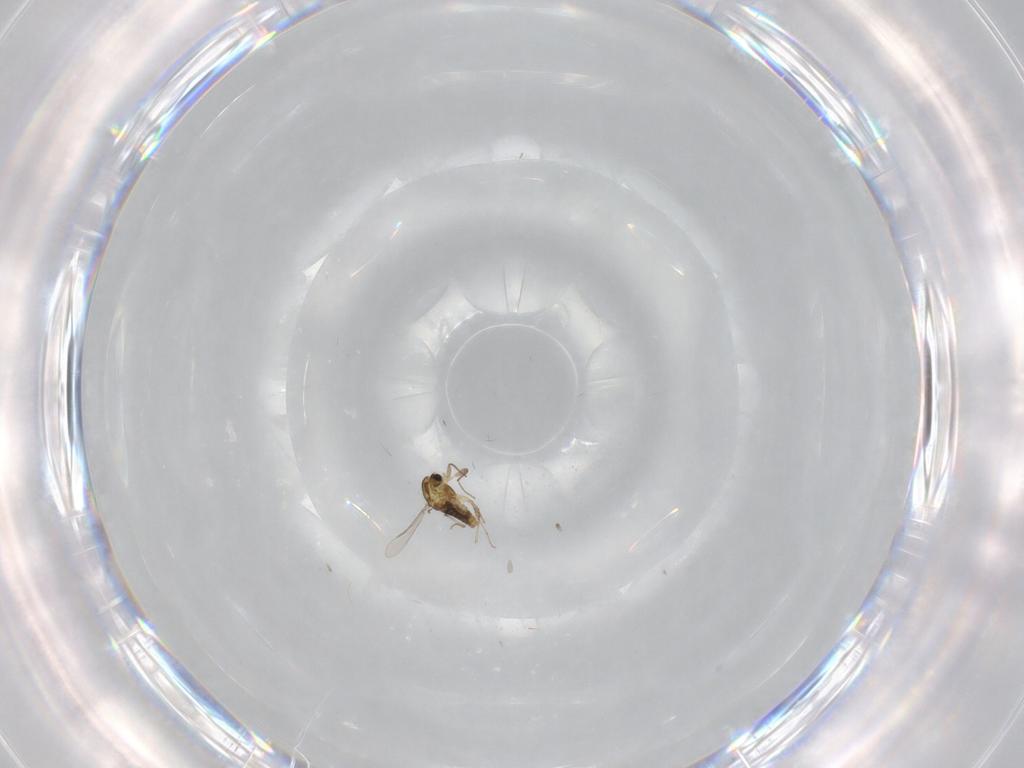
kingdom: Animalia
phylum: Arthropoda
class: Insecta
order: Diptera
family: Chironomidae
